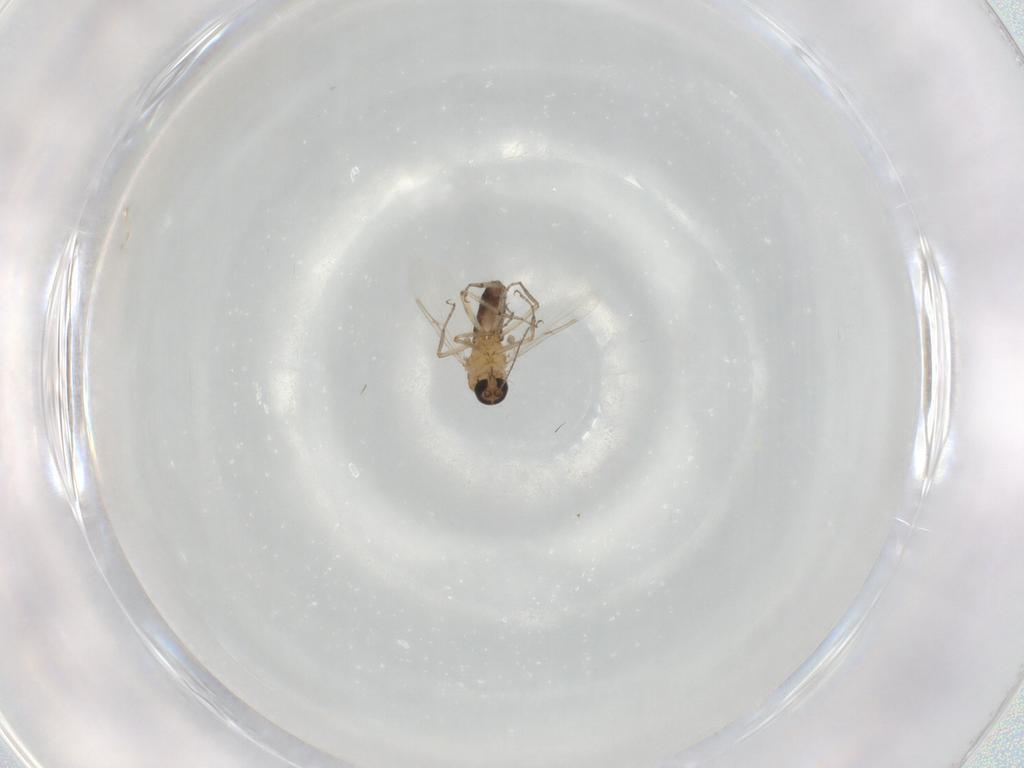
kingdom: Animalia
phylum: Arthropoda
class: Insecta
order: Diptera
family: Ceratopogonidae
